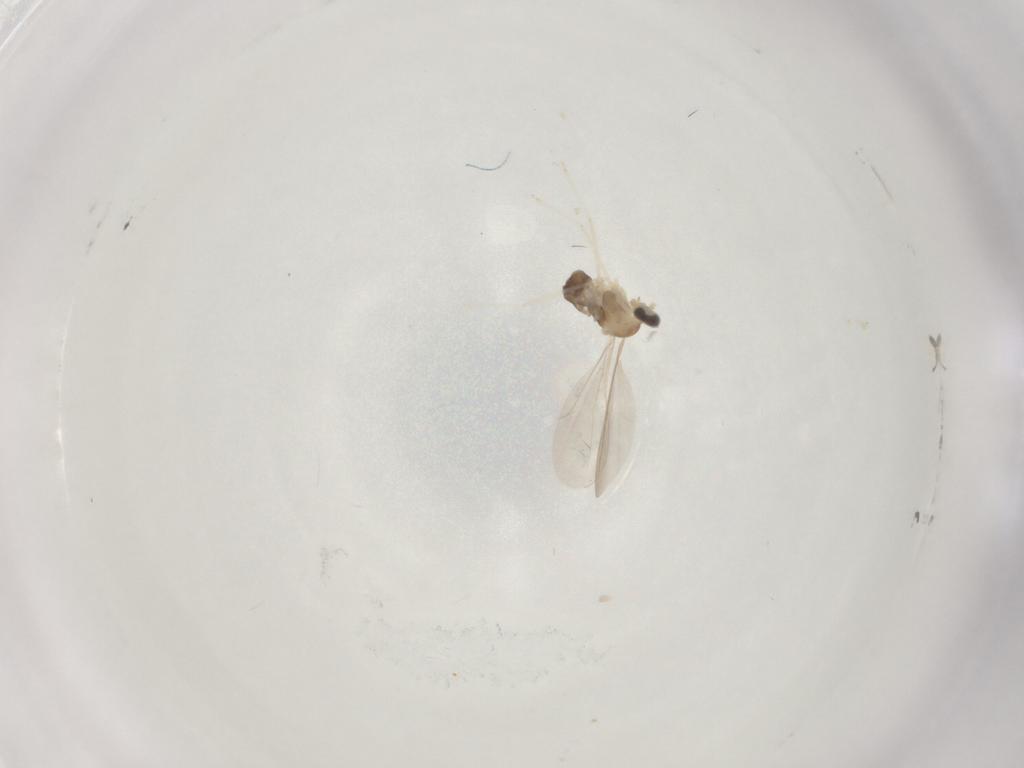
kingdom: Animalia
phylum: Arthropoda
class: Insecta
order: Diptera
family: Cecidomyiidae
